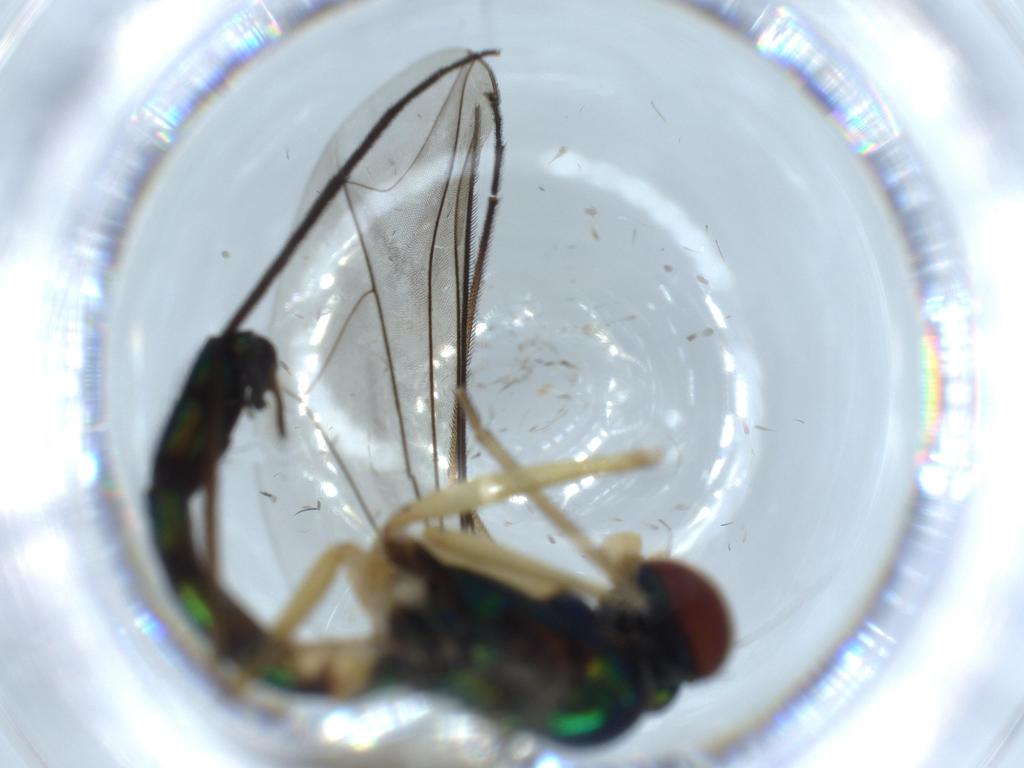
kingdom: Animalia
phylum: Arthropoda
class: Insecta
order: Diptera
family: Dolichopodidae
